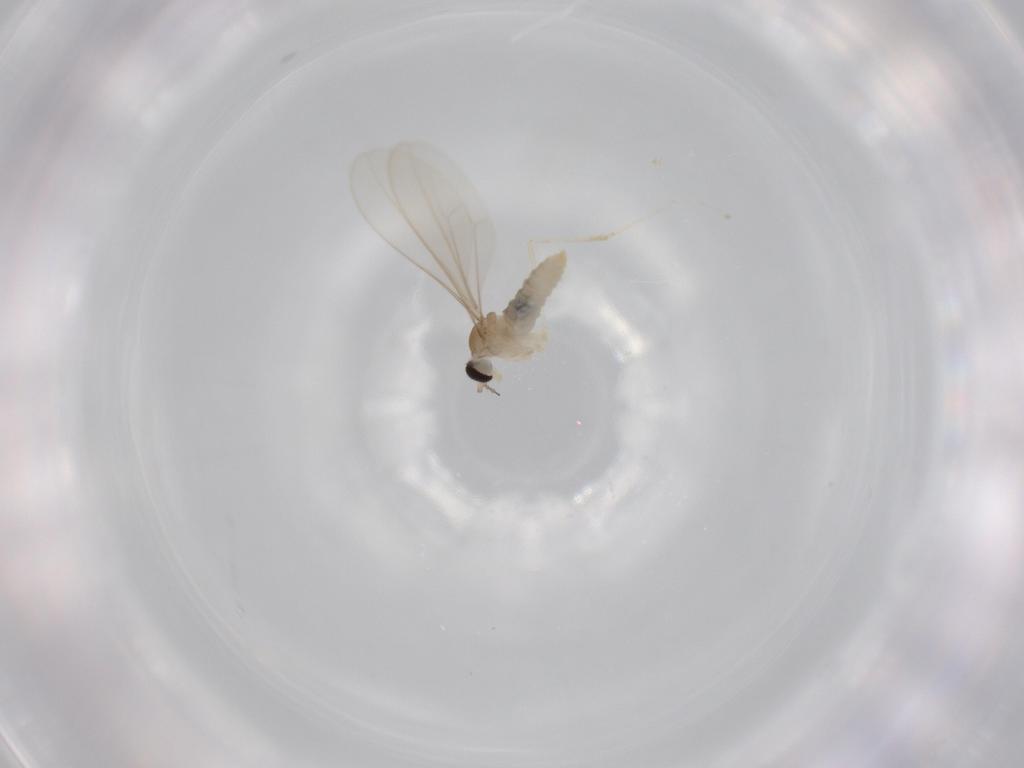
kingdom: Animalia
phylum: Arthropoda
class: Insecta
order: Diptera
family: Cecidomyiidae
